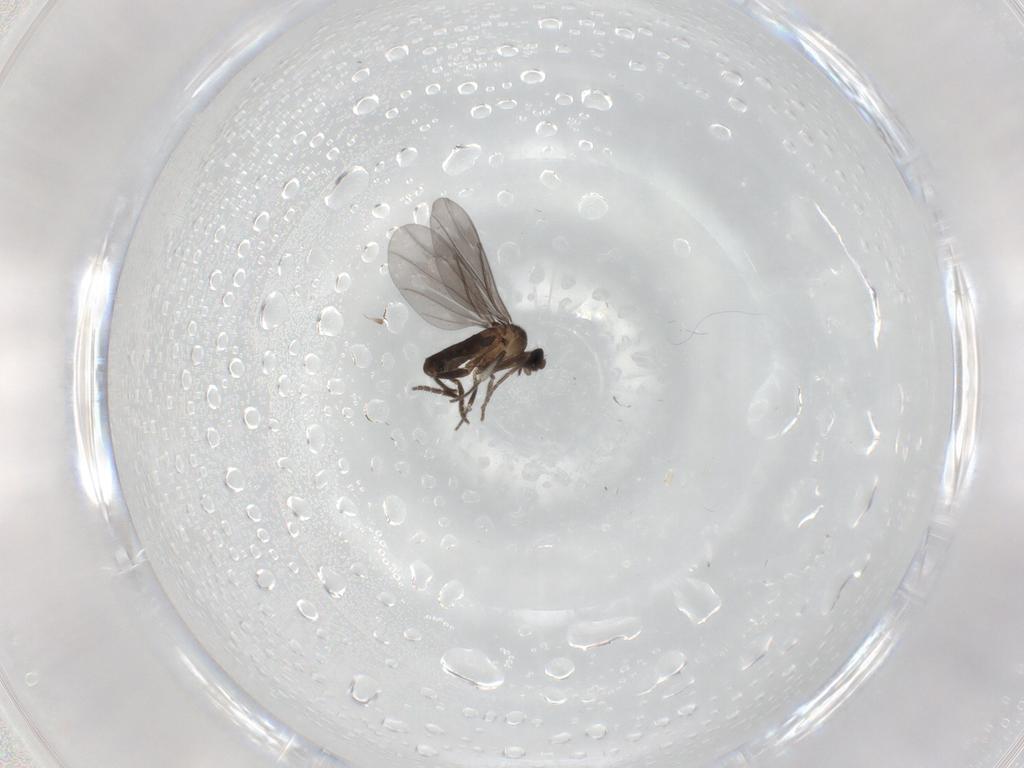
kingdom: Animalia
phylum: Arthropoda
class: Insecta
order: Diptera
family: Phoridae
